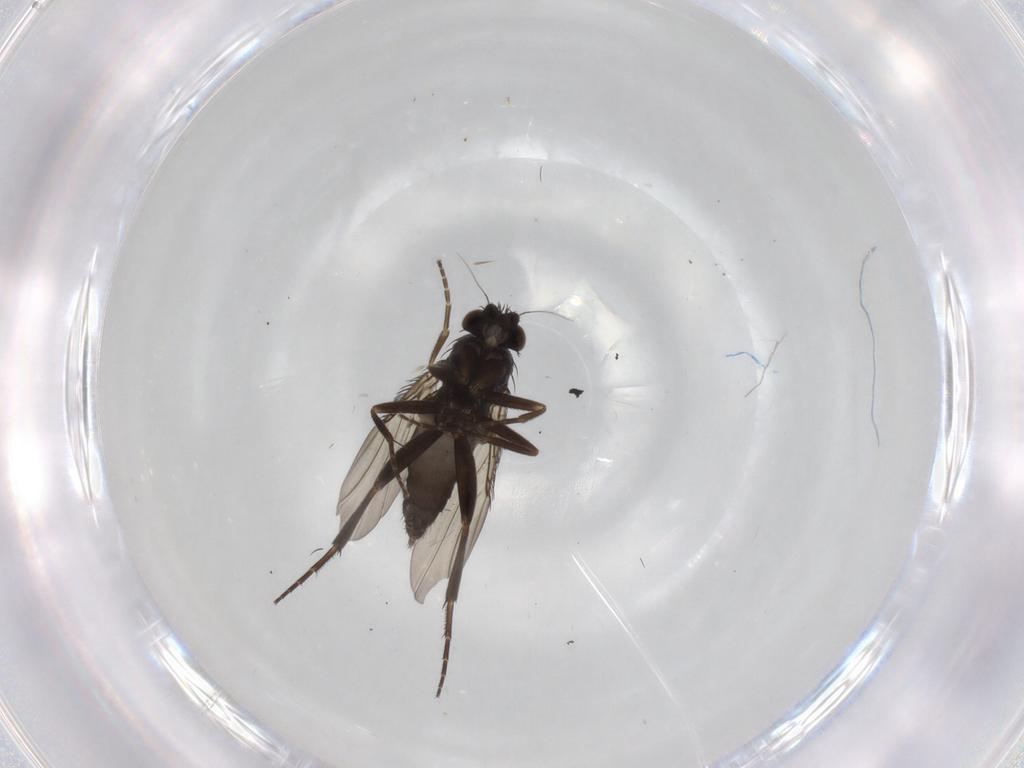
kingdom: Animalia
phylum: Arthropoda
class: Insecta
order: Diptera
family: Phoridae
